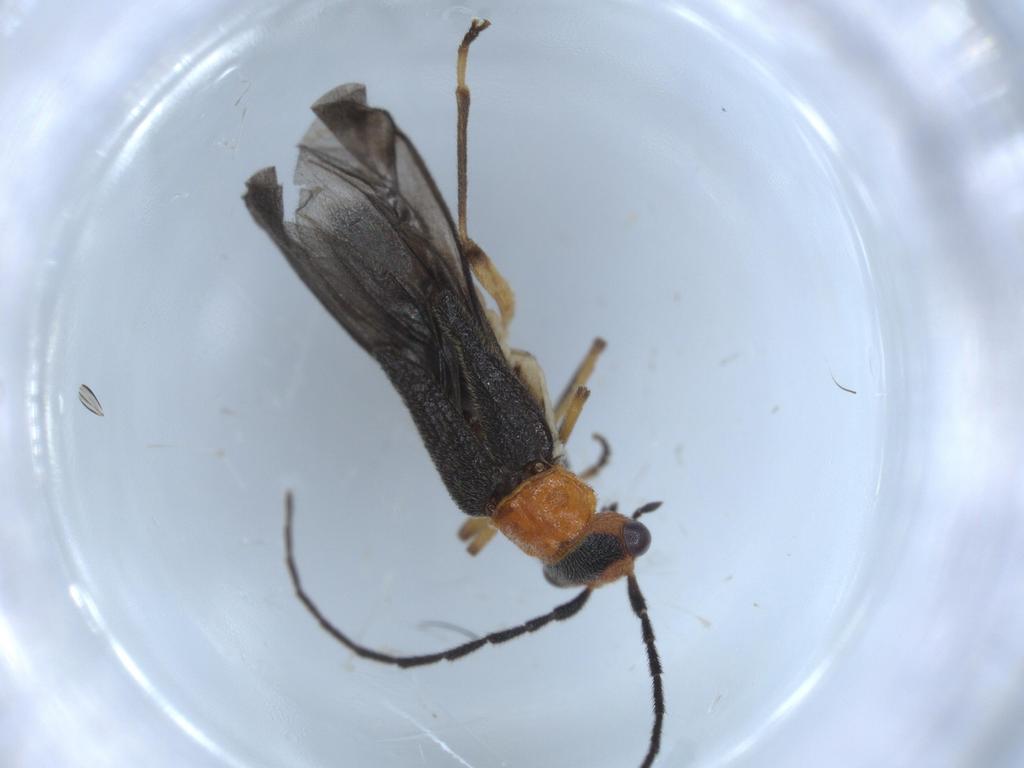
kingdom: Animalia
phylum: Arthropoda
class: Insecta
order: Coleoptera
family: Cantharidae
